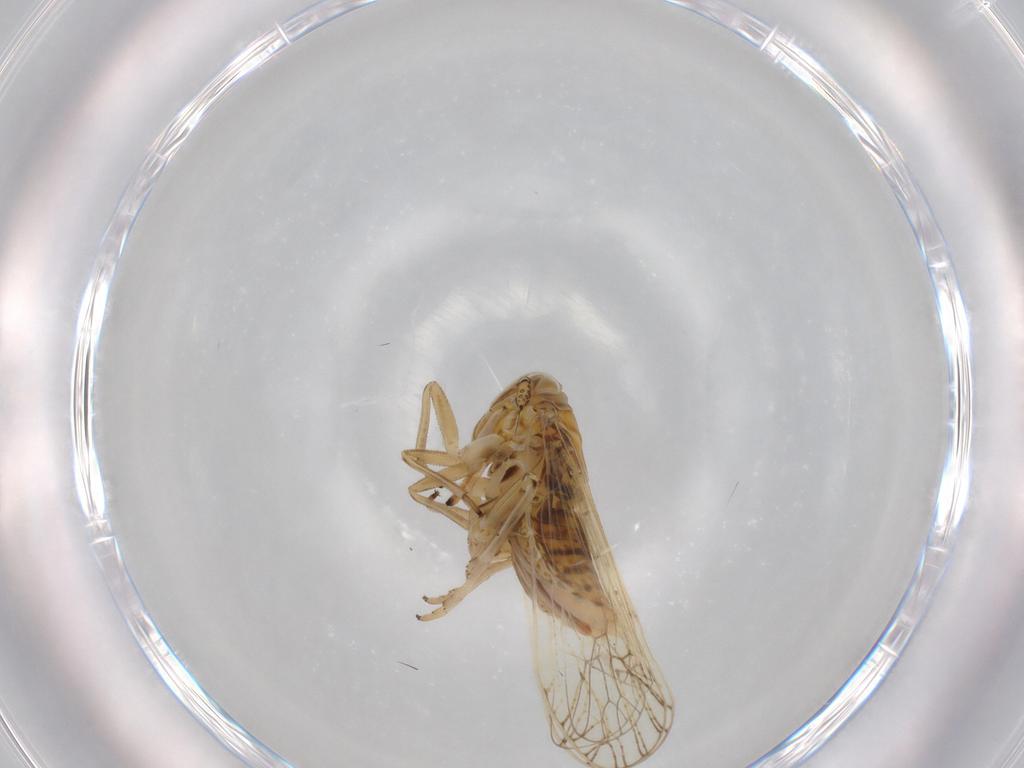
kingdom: Animalia
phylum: Arthropoda
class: Insecta
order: Hemiptera
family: Delphacidae
